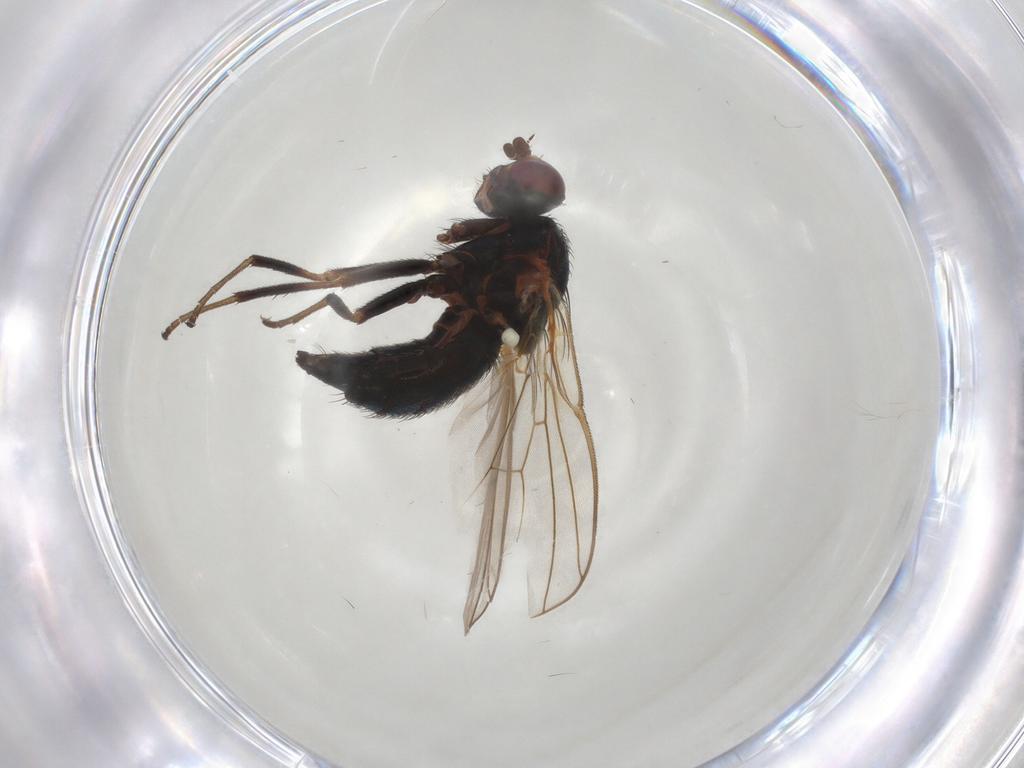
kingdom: Animalia
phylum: Arthropoda
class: Insecta
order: Diptera
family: Agromyzidae
